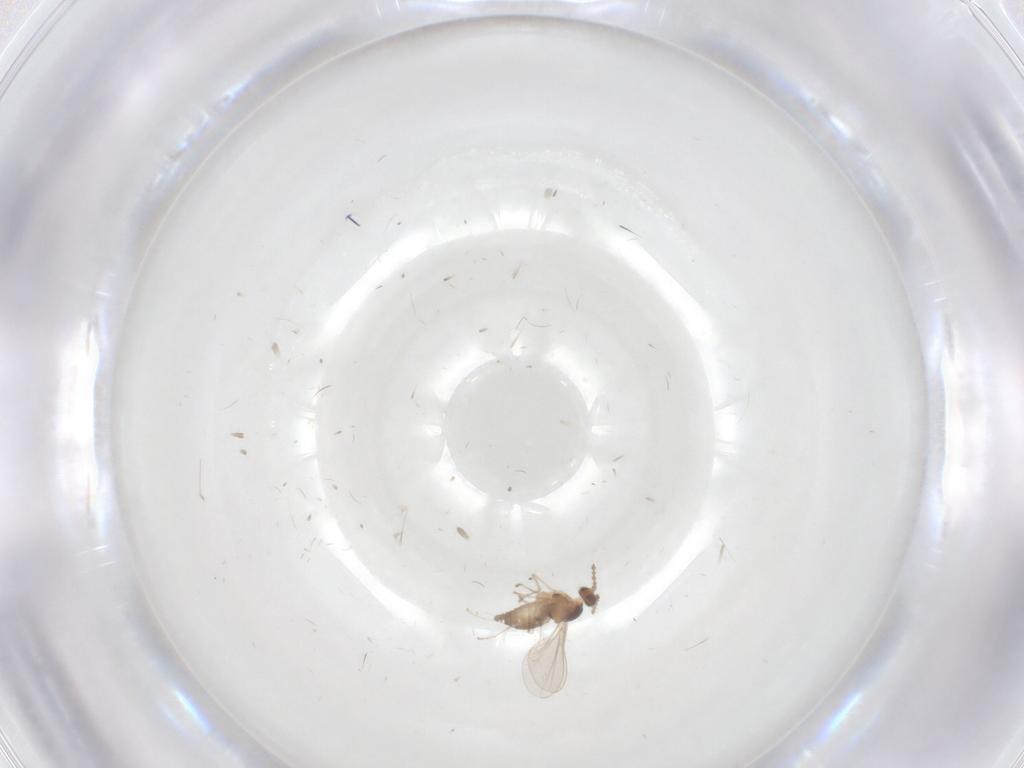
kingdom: Animalia
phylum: Arthropoda
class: Insecta
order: Diptera
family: Cecidomyiidae
